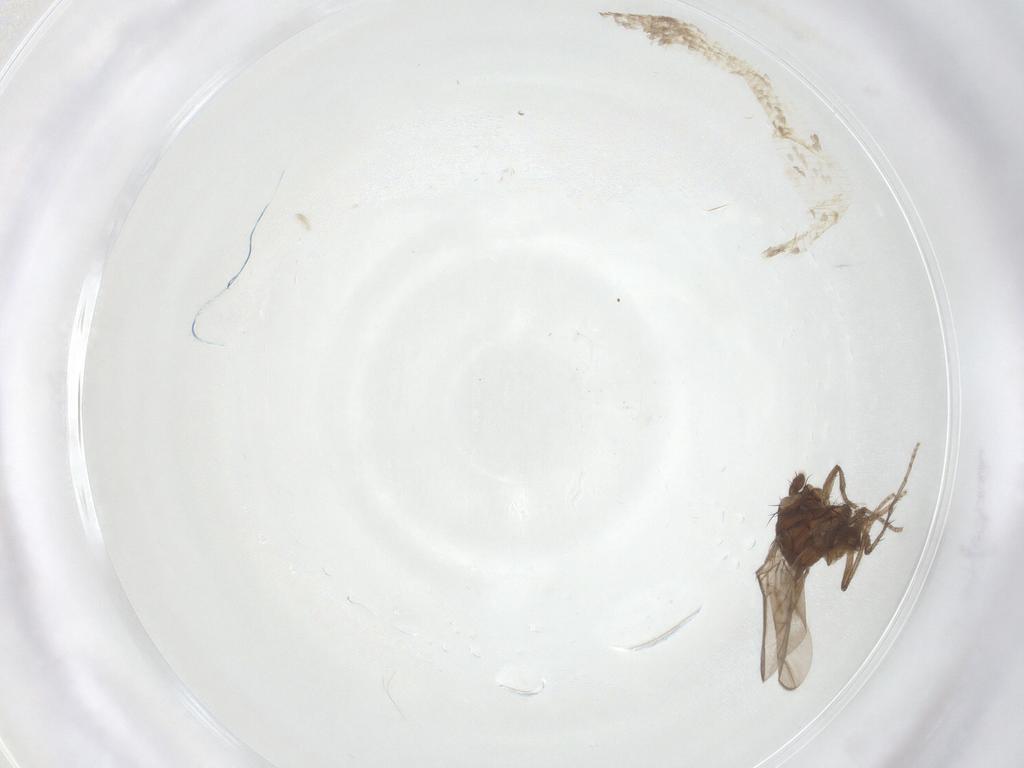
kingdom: Animalia
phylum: Arthropoda
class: Insecta
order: Diptera
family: Sphaeroceridae
